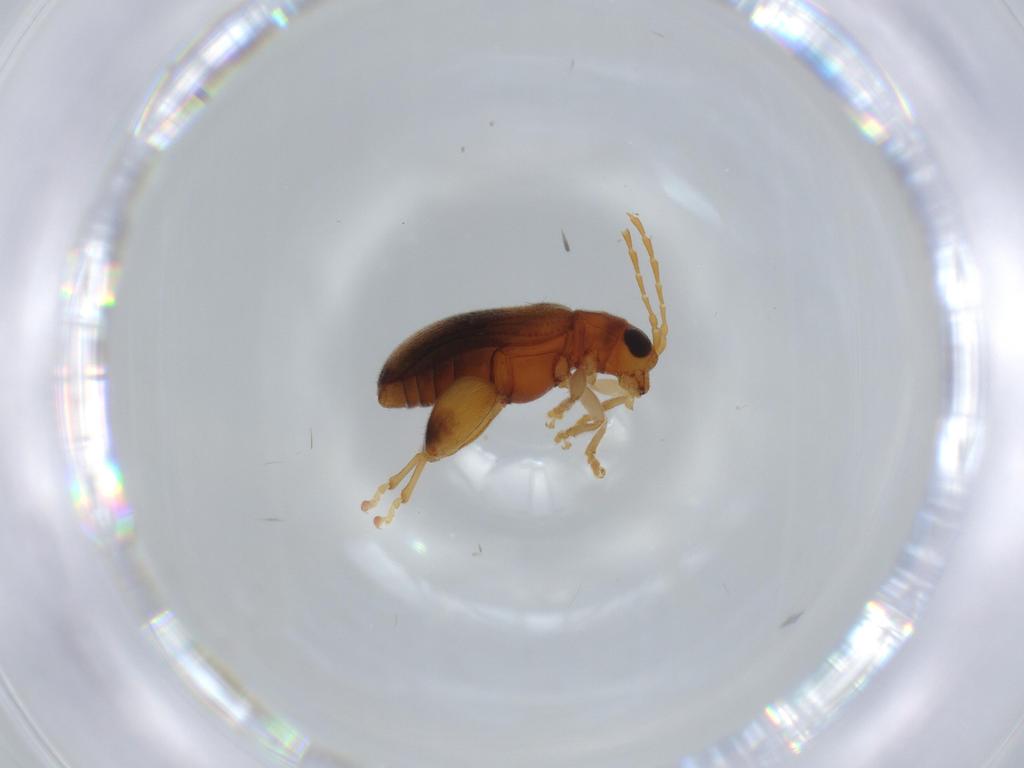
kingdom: Animalia
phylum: Arthropoda
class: Insecta
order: Coleoptera
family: Chrysomelidae
